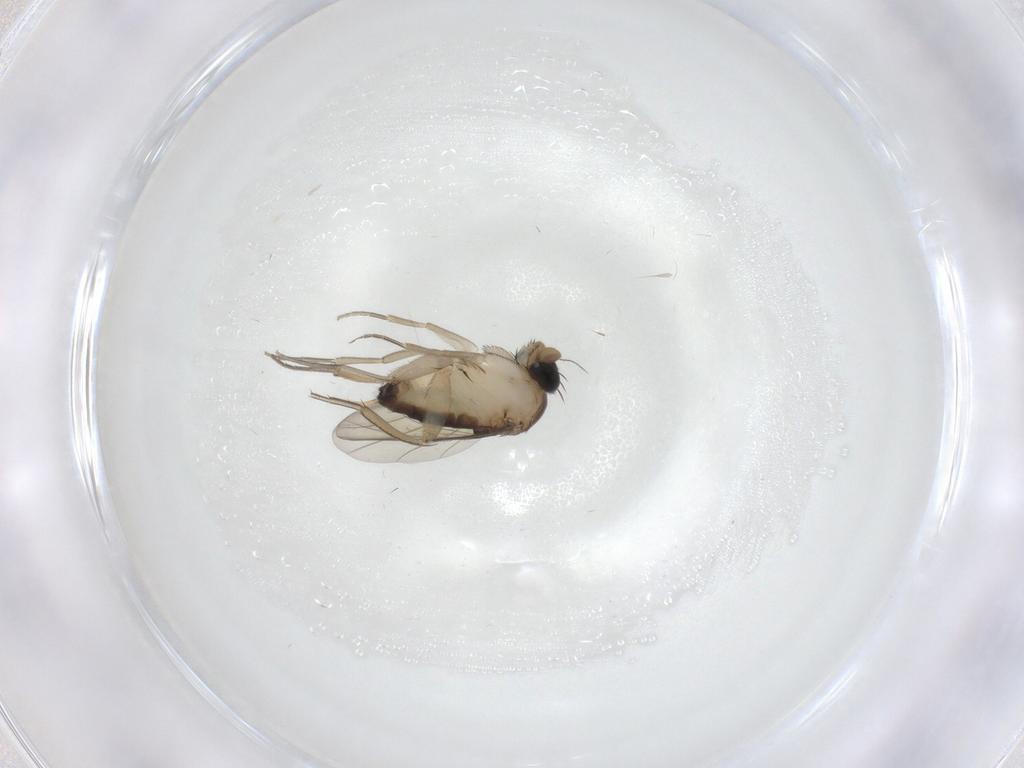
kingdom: Animalia
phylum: Arthropoda
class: Insecta
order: Diptera
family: Phoridae
